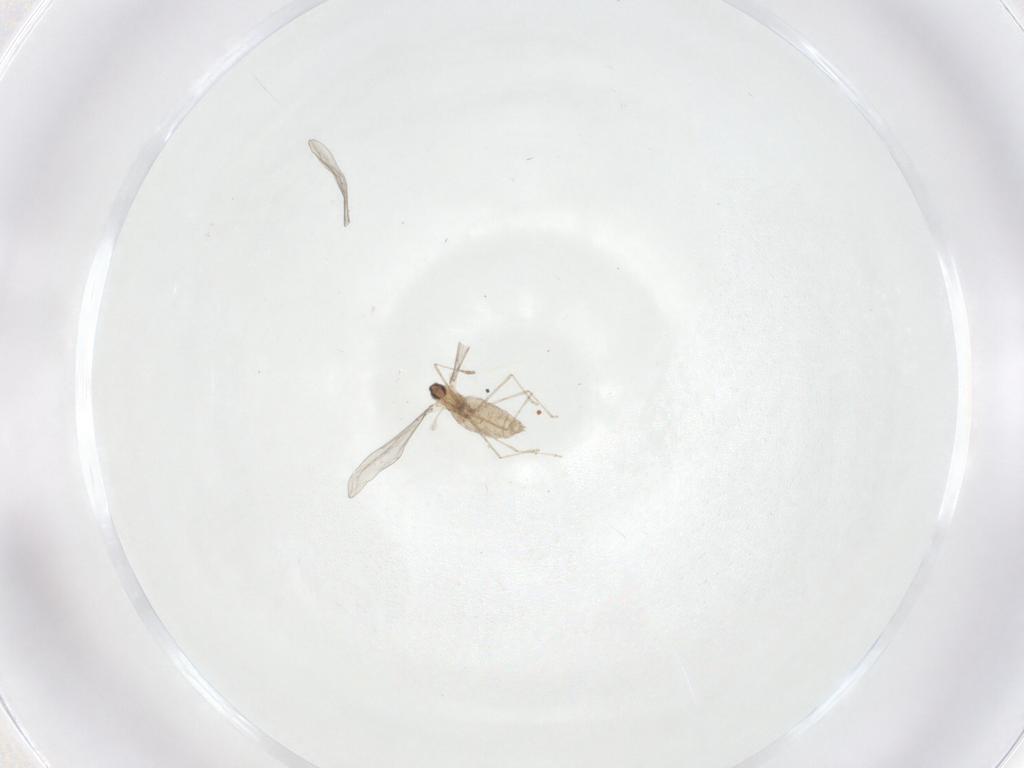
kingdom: Animalia
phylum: Arthropoda
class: Insecta
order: Diptera
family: Cecidomyiidae
